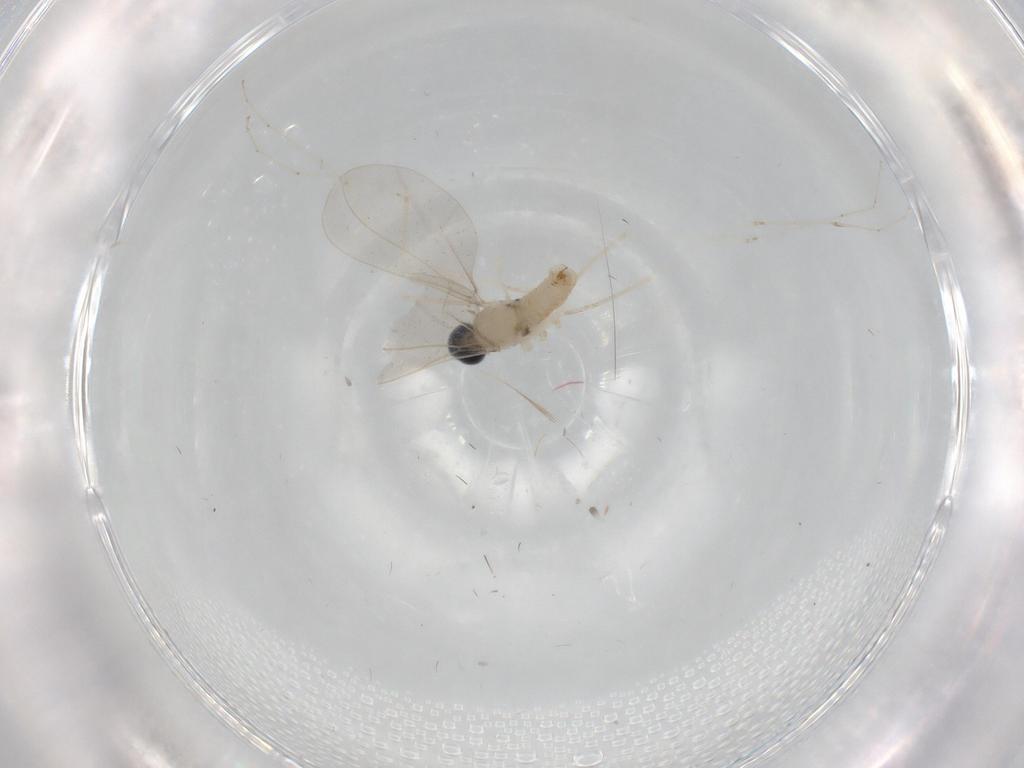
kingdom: Animalia
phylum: Arthropoda
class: Insecta
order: Diptera
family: Cecidomyiidae
